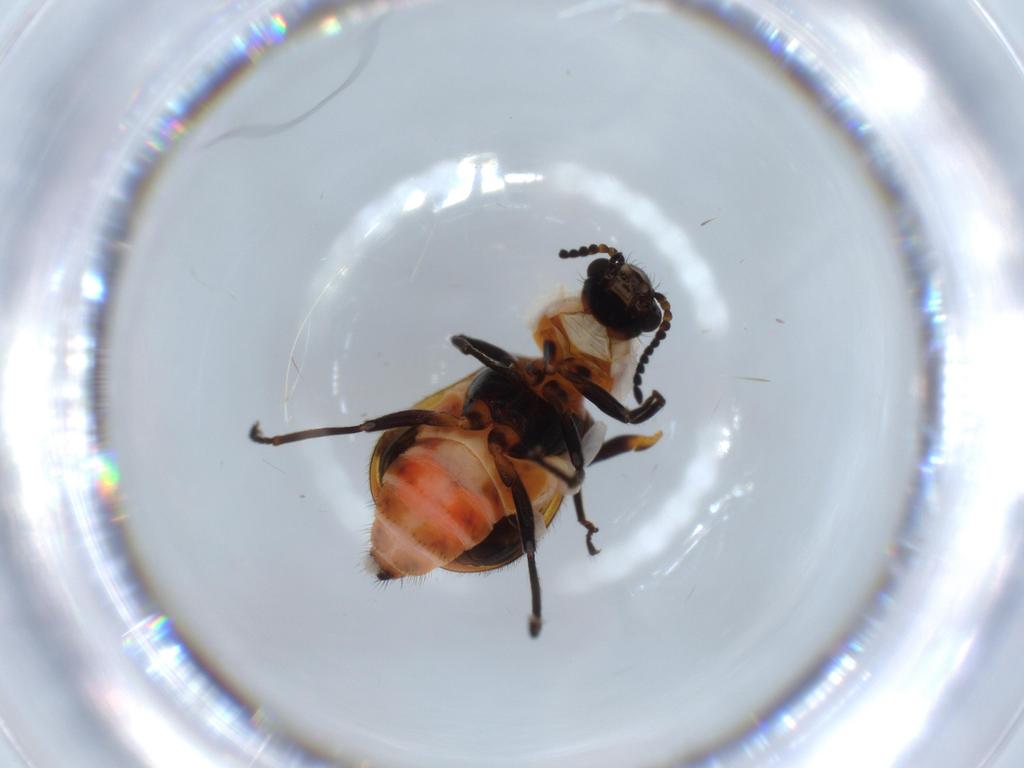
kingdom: Animalia
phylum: Arthropoda
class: Insecta
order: Coleoptera
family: Melyridae
